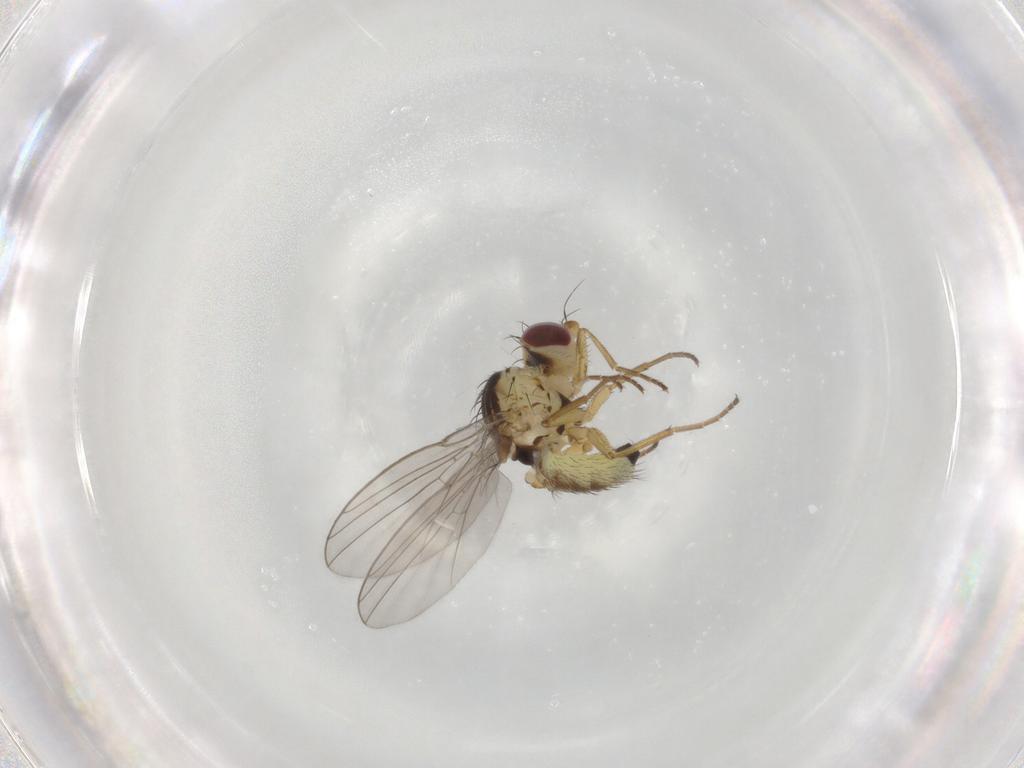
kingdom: Animalia
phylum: Arthropoda
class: Insecta
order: Diptera
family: Agromyzidae
